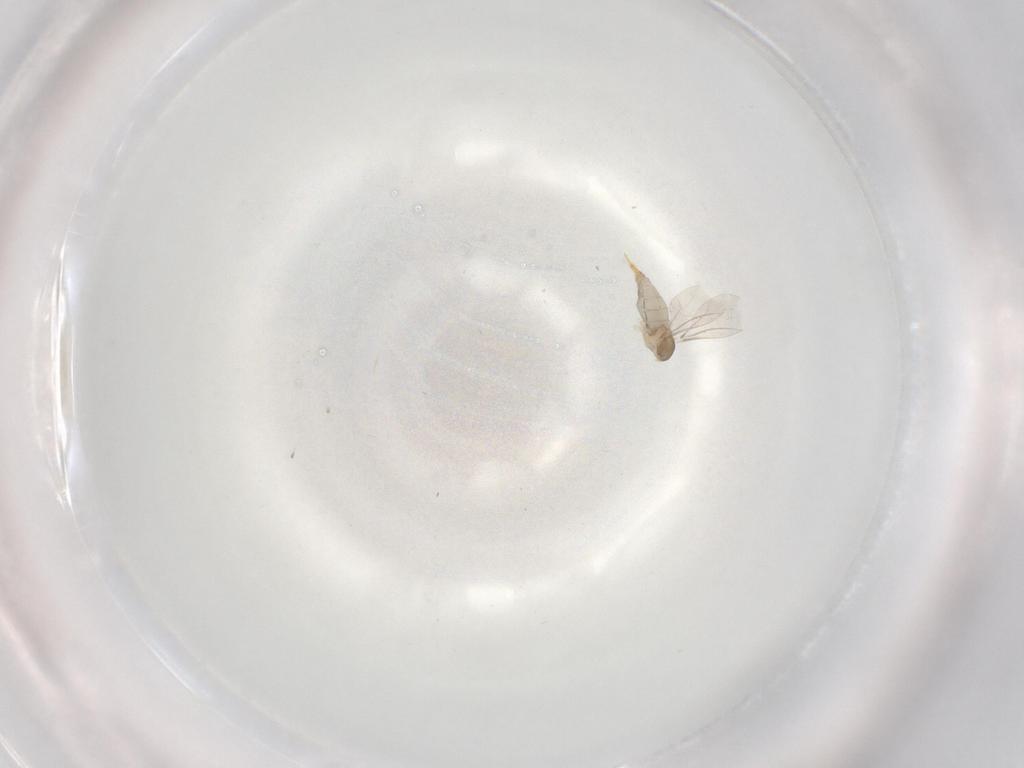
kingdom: Animalia
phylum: Arthropoda
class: Insecta
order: Diptera
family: Cecidomyiidae
